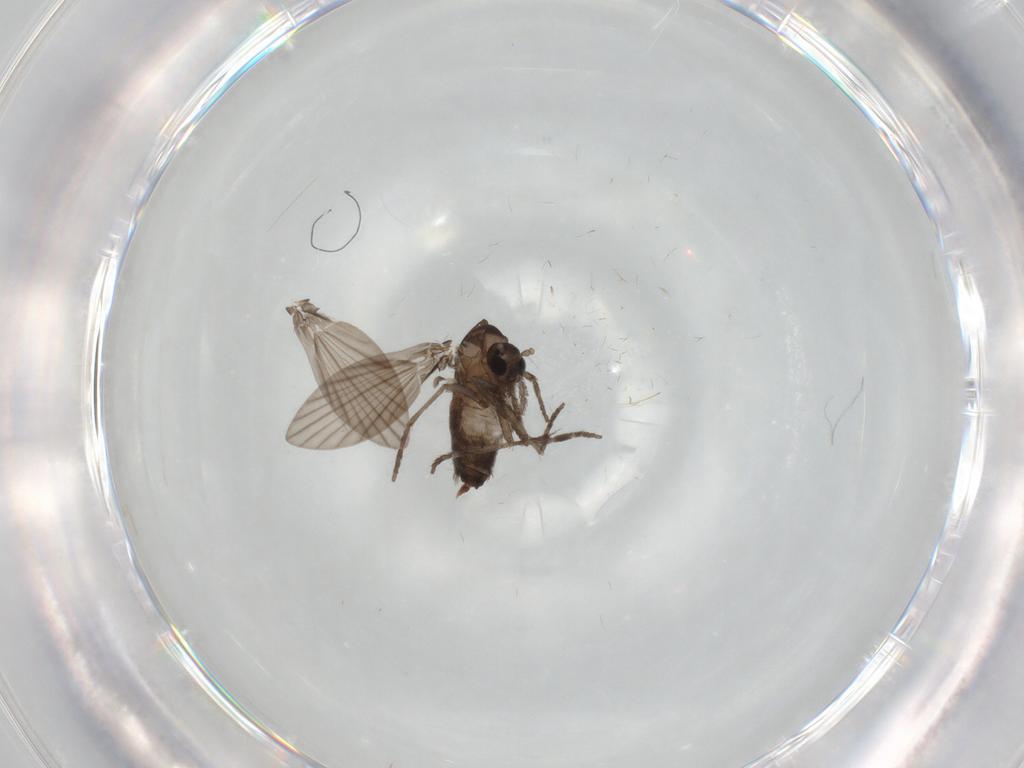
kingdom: Animalia
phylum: Arthropoda
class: Insecta
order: Diptera
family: Psychodidae
